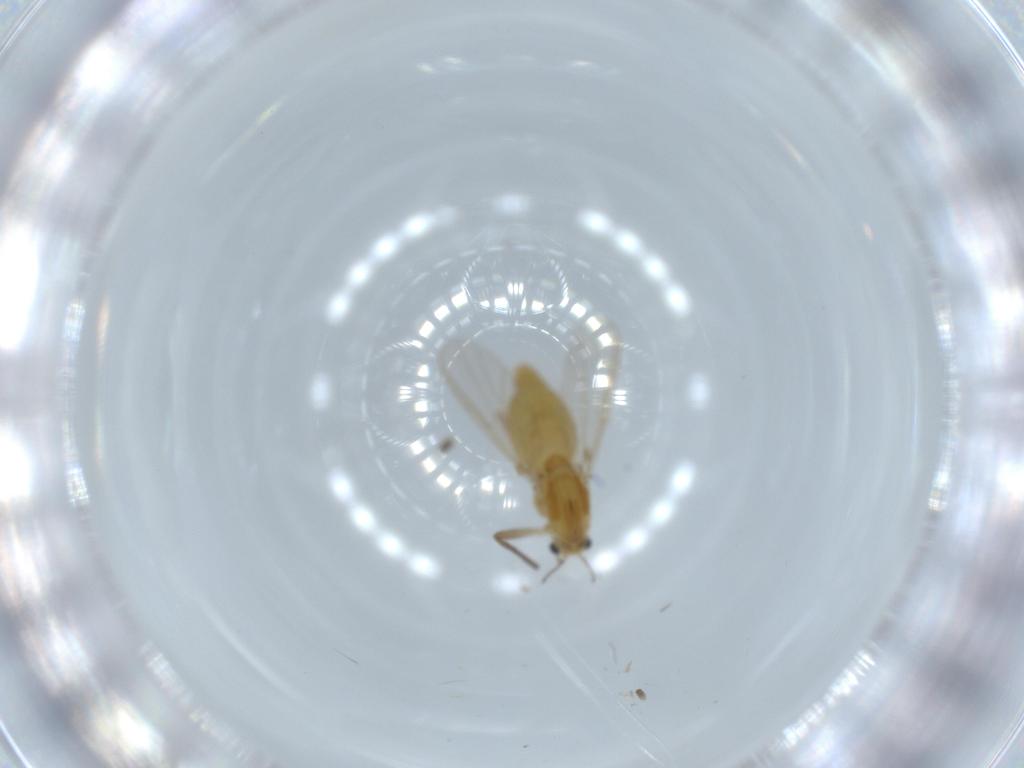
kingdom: Animalia
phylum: Arthropoda
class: Insecta
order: Diptera
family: Chironomidae
